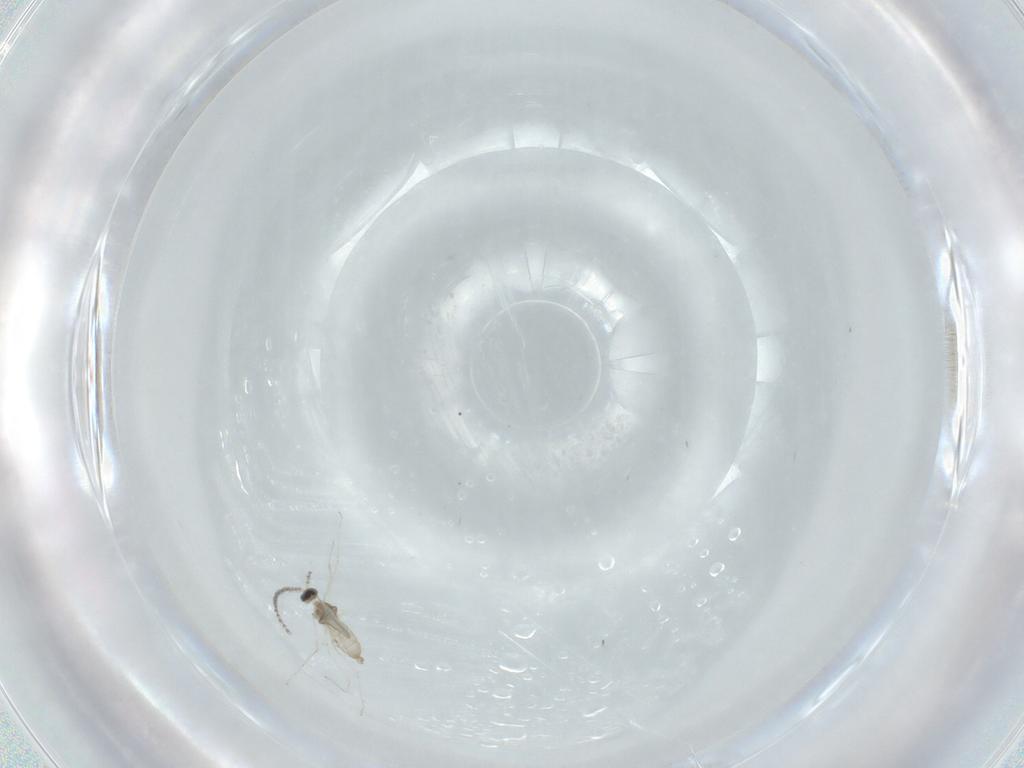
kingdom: Animalia
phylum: Arthropoda
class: Insecta
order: Diptera
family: Cecidomyiidae
